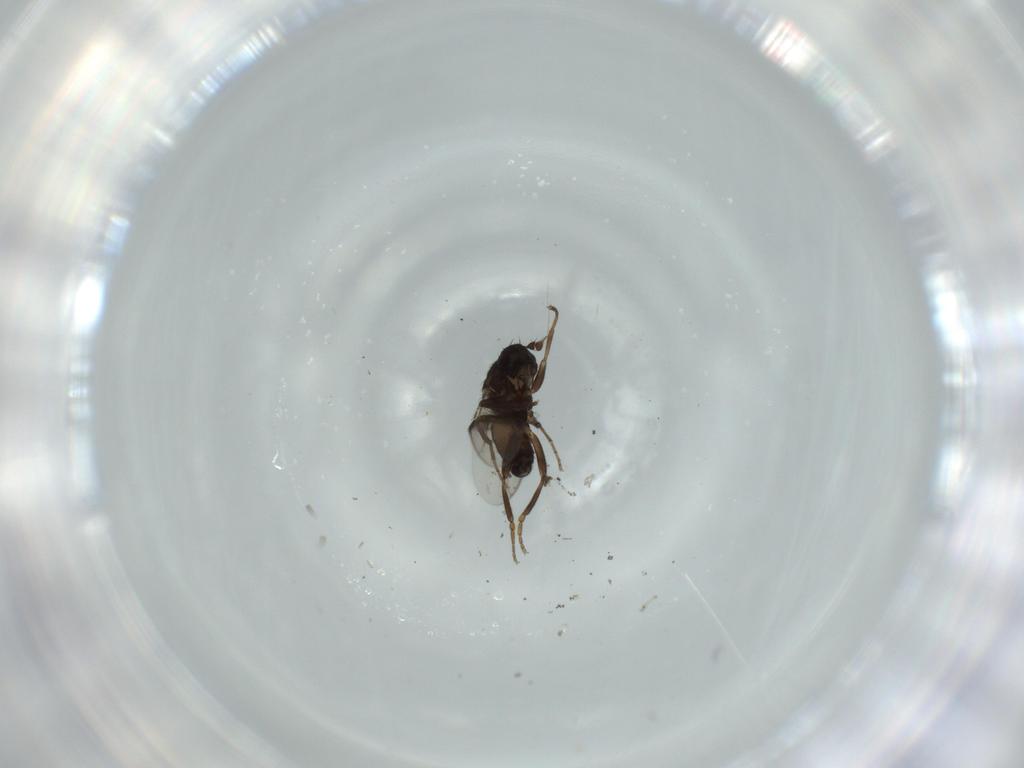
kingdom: Animalia
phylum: Arthropoda
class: Insecta
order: Diptera
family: Sphaeroceridae
